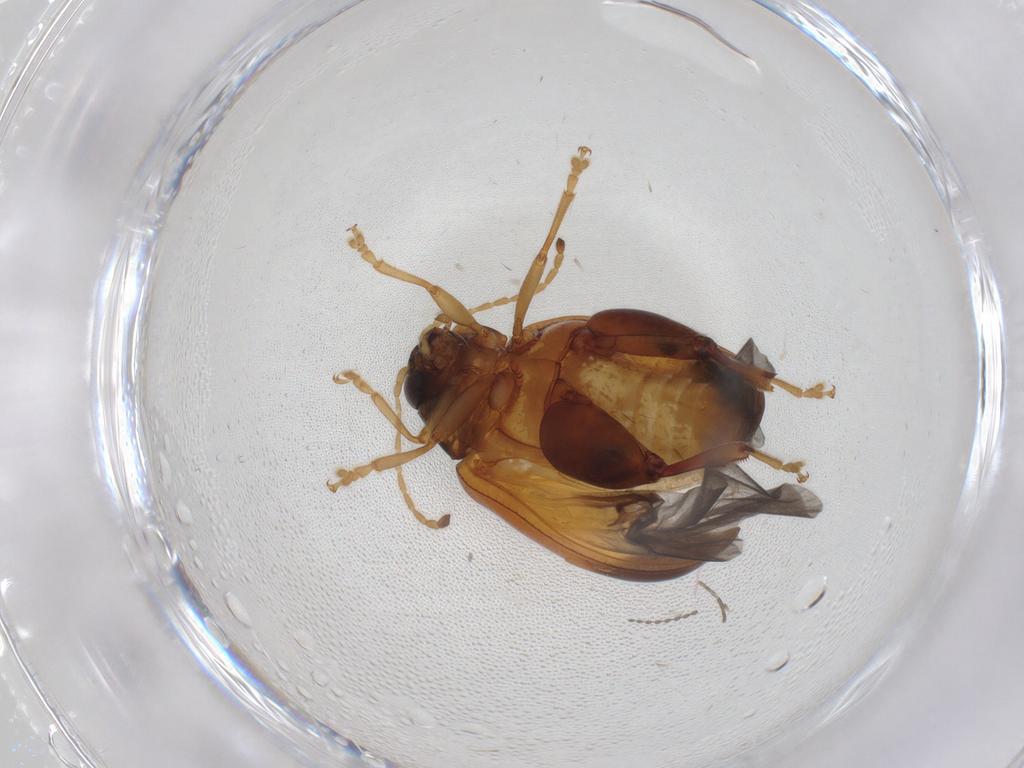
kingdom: Animalia
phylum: Arthropoda
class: Insecta
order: Coleoptera
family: Chrysomelidae
